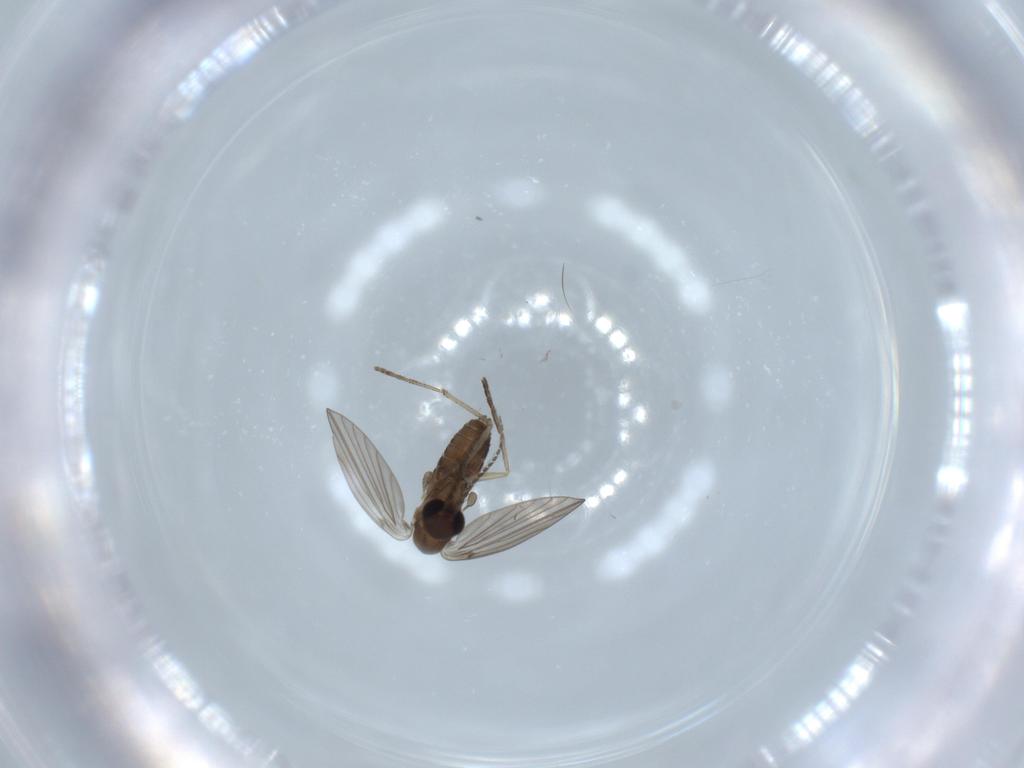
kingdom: Animalia
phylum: Arthropoda
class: Insecta
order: Diptera
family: Psychodidae
